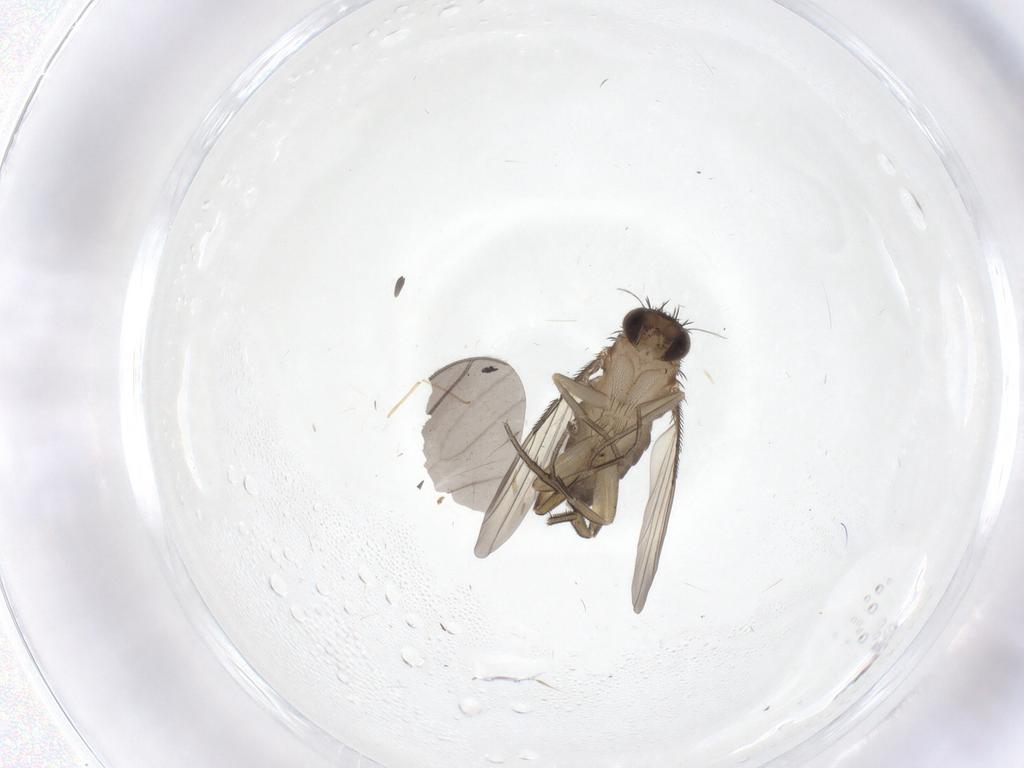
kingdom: Animalia
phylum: Arthropoda
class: Insecta
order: Diptera
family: Phoridae
